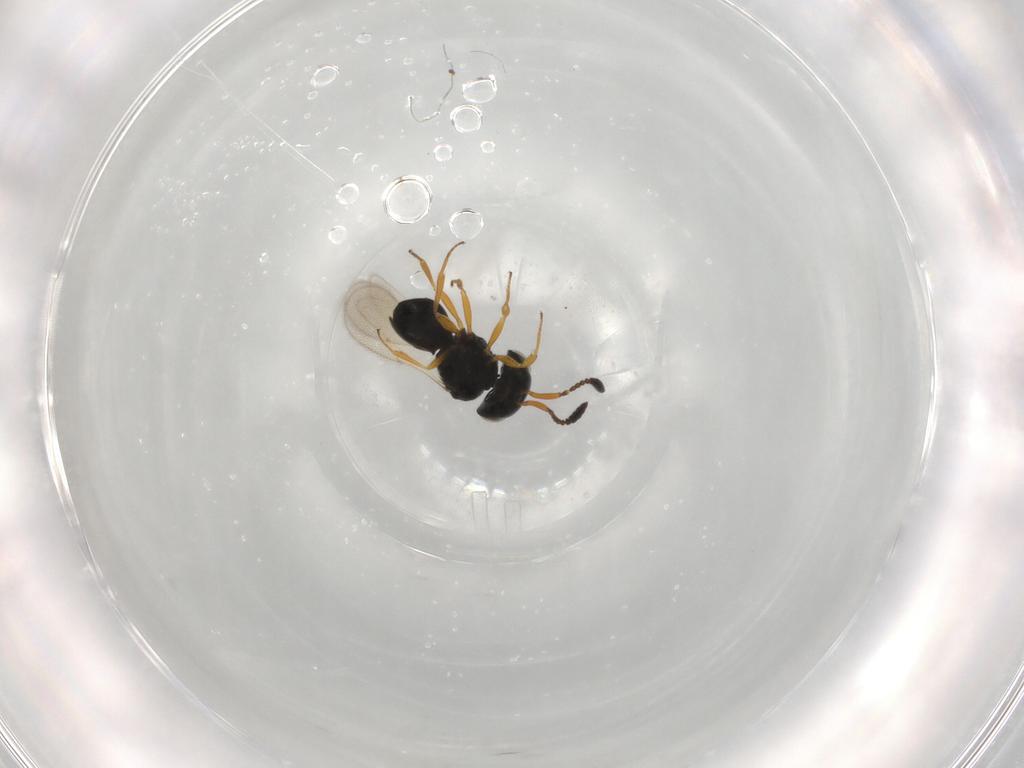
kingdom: Animalia
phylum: Arthropoda
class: Insecta
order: Hymenoptera
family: Scelionidae
